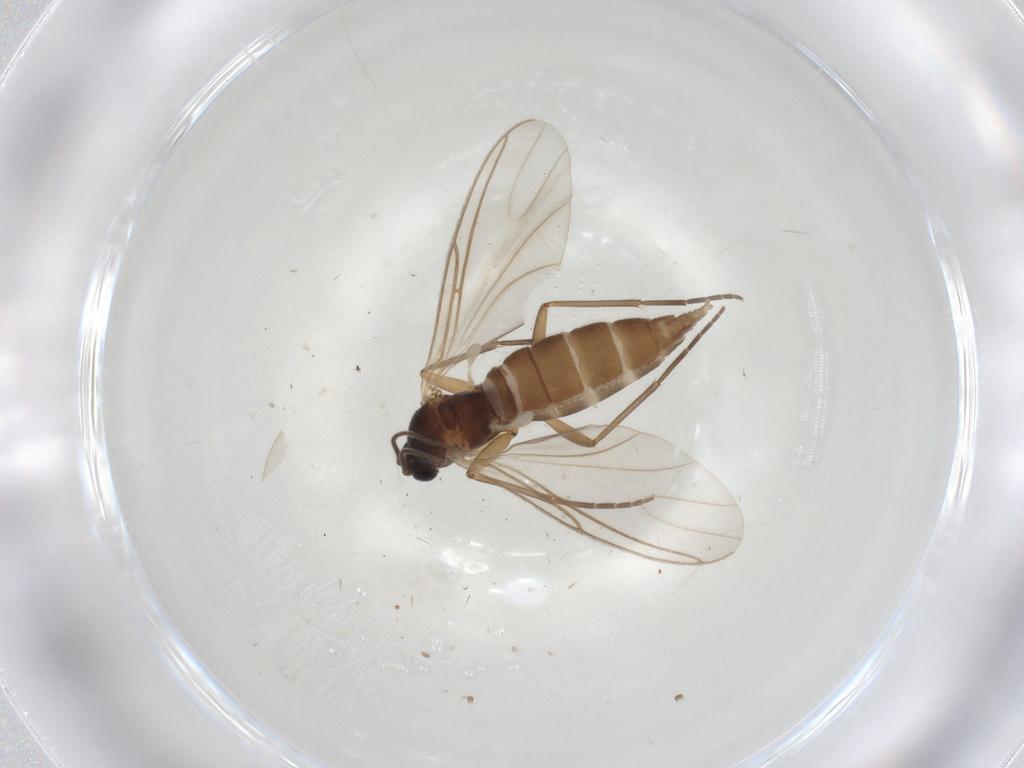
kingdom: Animalia
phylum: Arthropoda
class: Insecta
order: Diptera
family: Sciaridae
